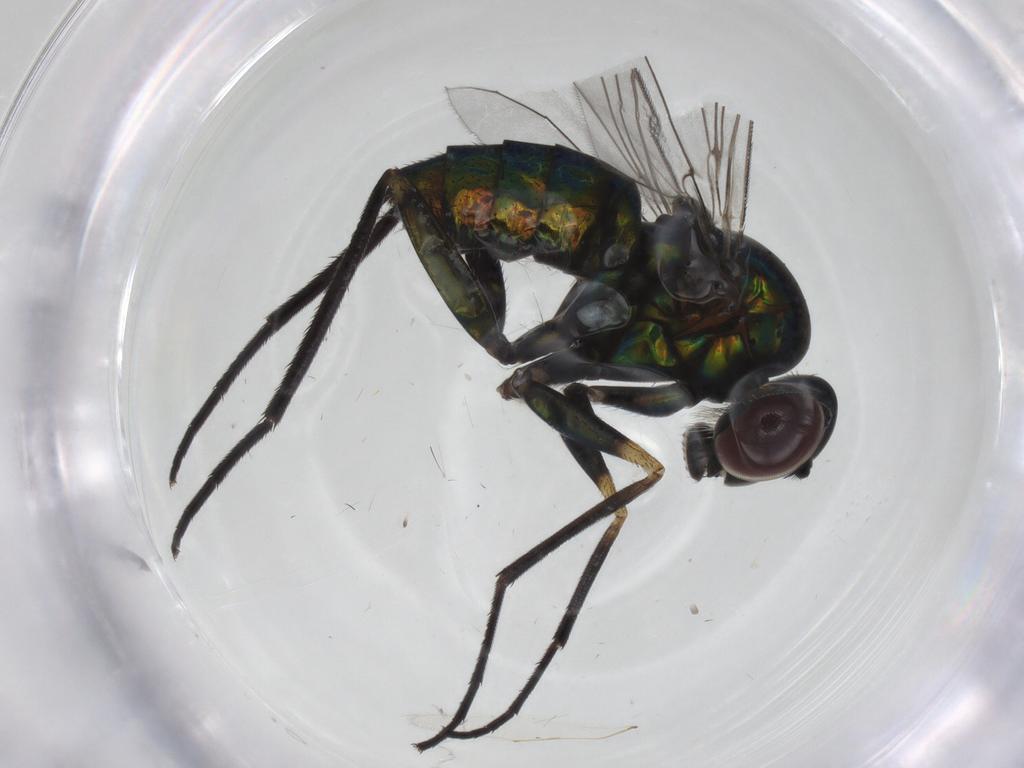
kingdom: Animalia
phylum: Arthropoda
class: Insecta
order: Diptera
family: Dolichopodidae
